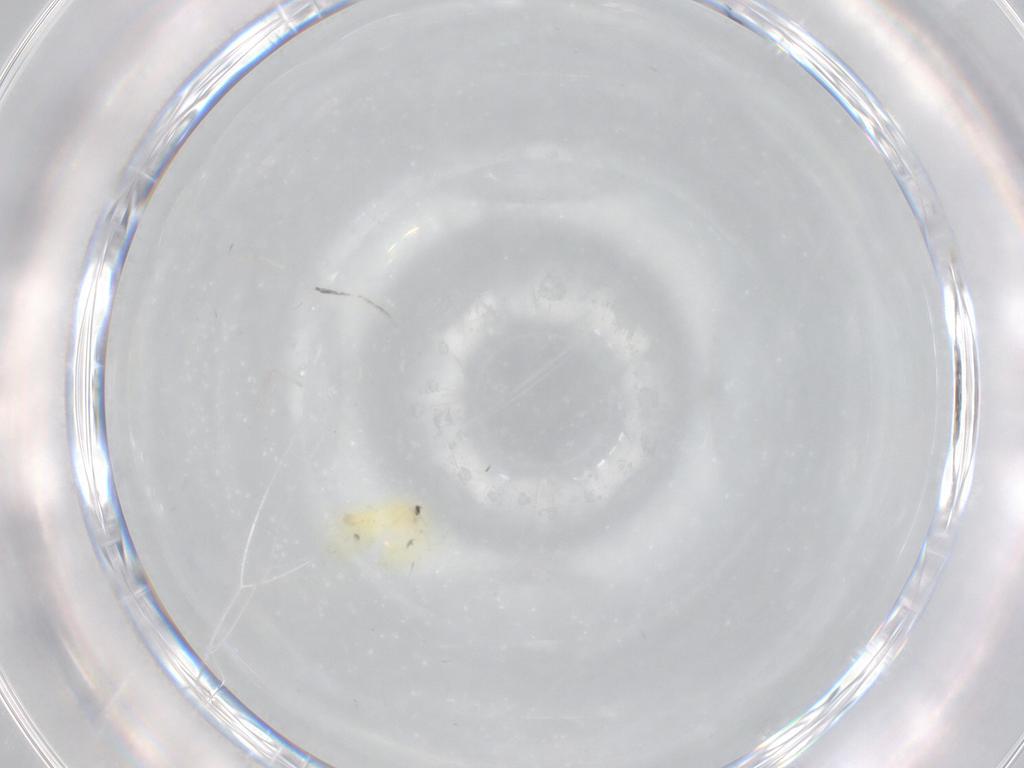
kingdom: Animalia
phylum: Arthropoda
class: Insecta
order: Hemiptera
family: Aleyrodidae
